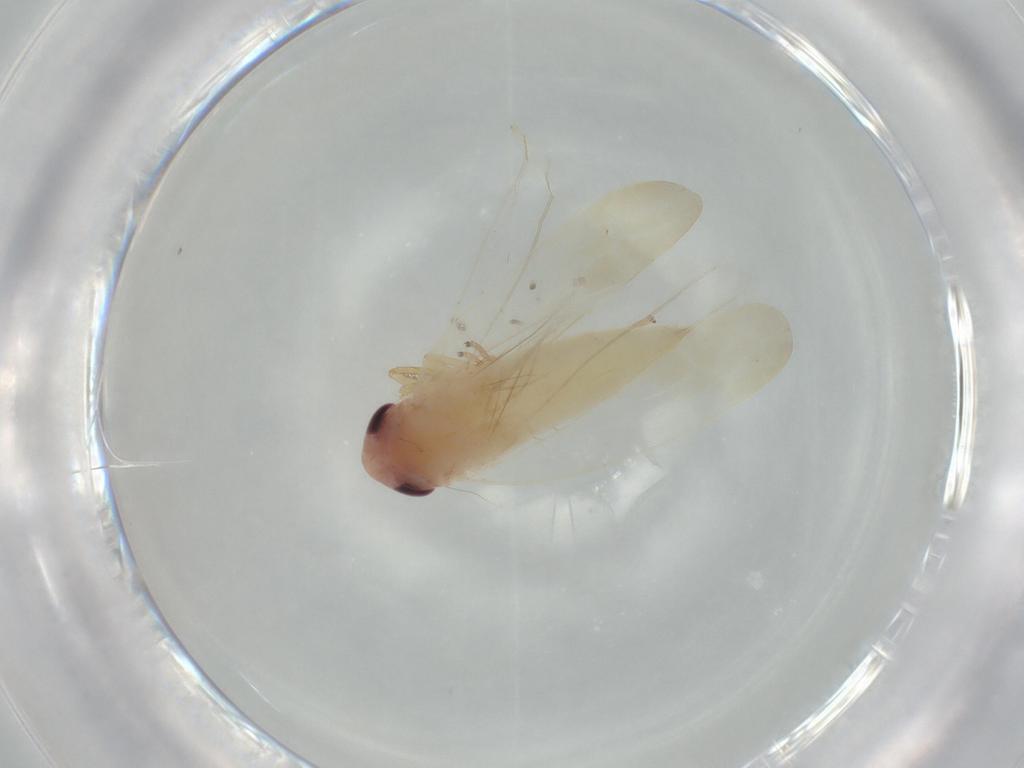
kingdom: Animalia
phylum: Arthropoda
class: Insecta
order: Hemiptera
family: Cicadellidae
